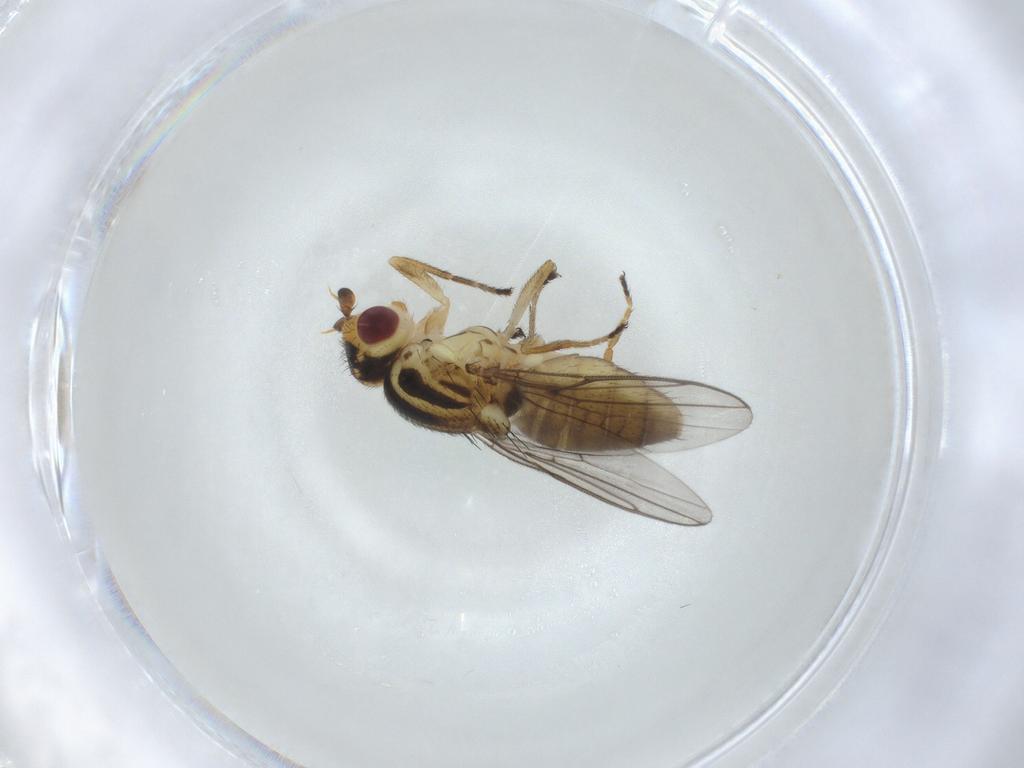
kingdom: Animalia
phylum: Arthropoda
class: Insecta
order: Diptera
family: Chloropidae
